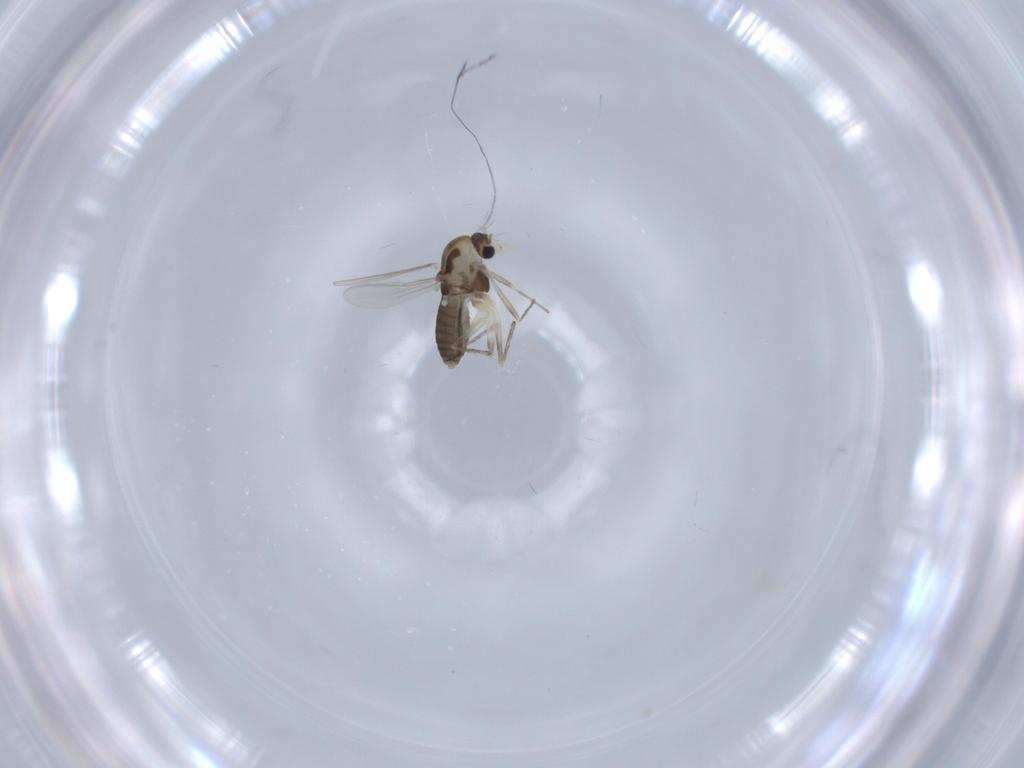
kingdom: Animalia
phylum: Arthropoda
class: Insecta
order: Diptera
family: Chironomidae
